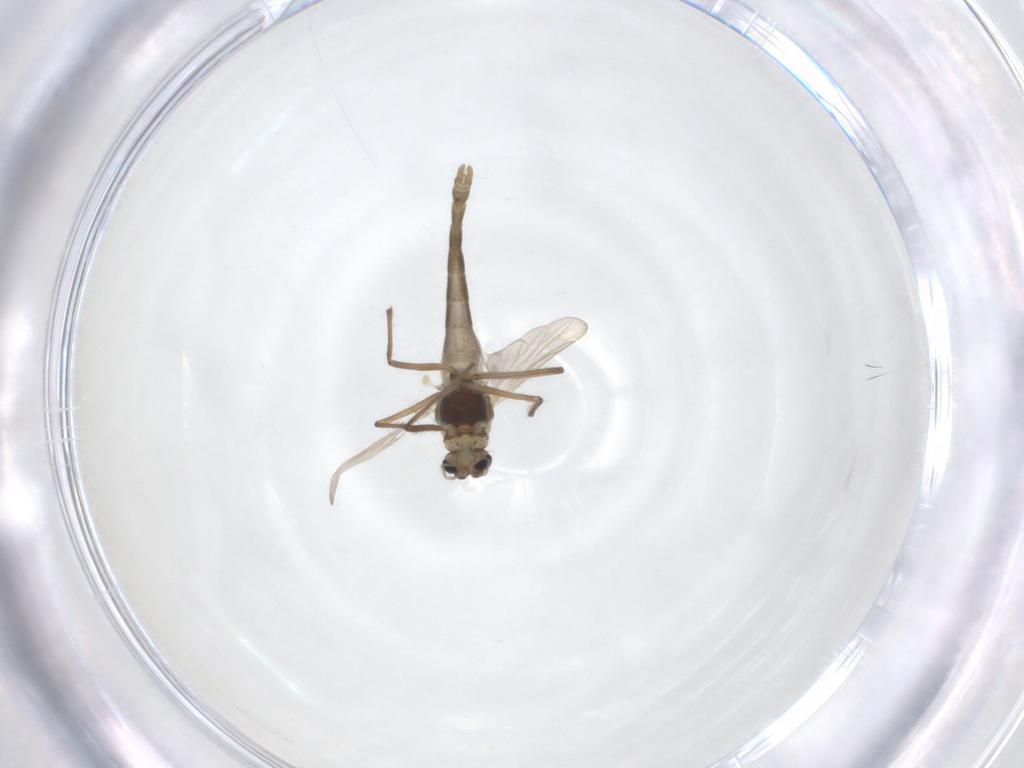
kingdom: Animalia
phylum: Arthropoda
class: Insecta
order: Diptera
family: Chironomidae
